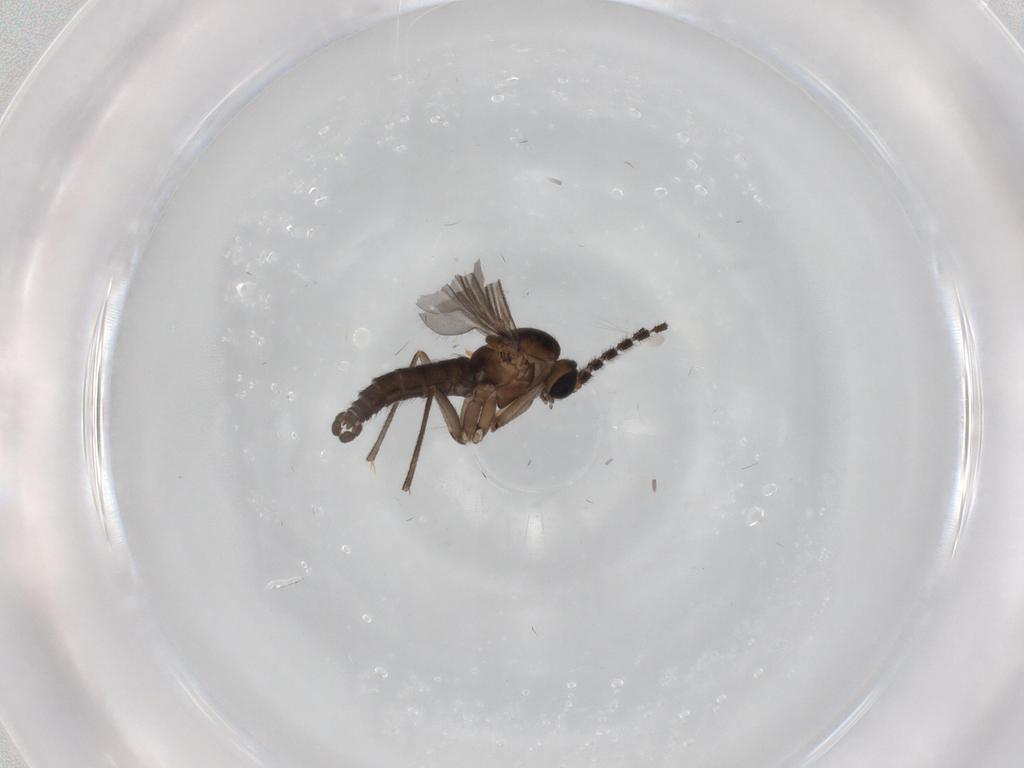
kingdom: Animalia
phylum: Arthropoda
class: Insecta
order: Diptera
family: Sciaridae
